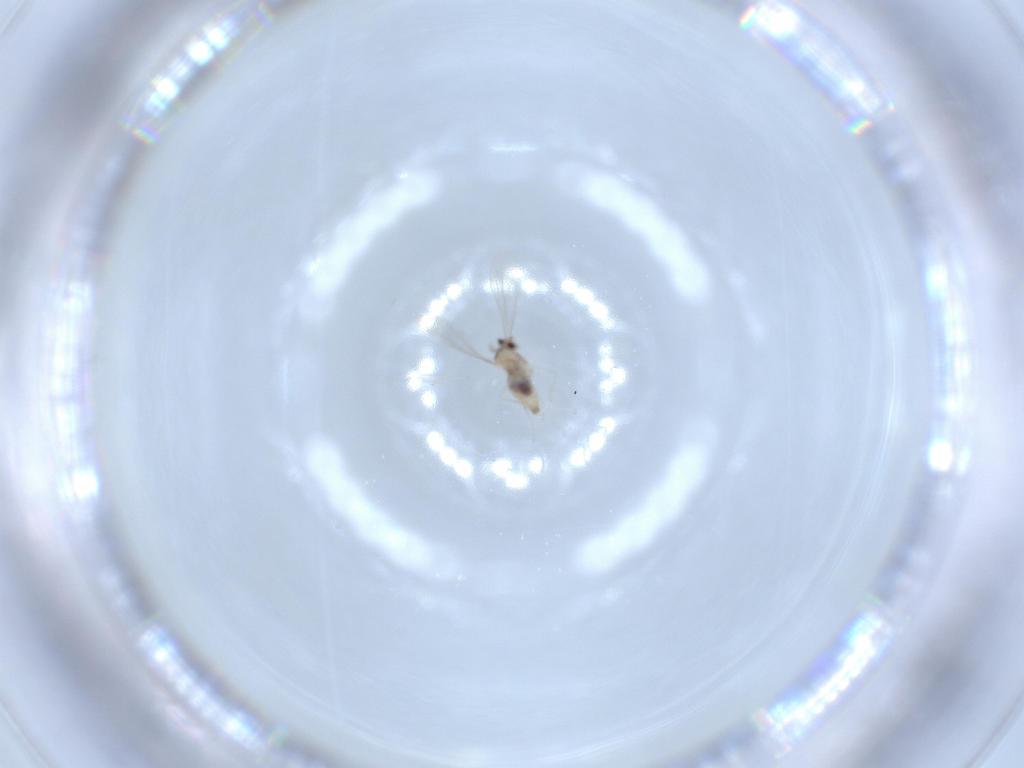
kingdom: Animalia
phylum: Arthropoda
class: Insecta
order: Diptera
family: Cecidomyiidae
